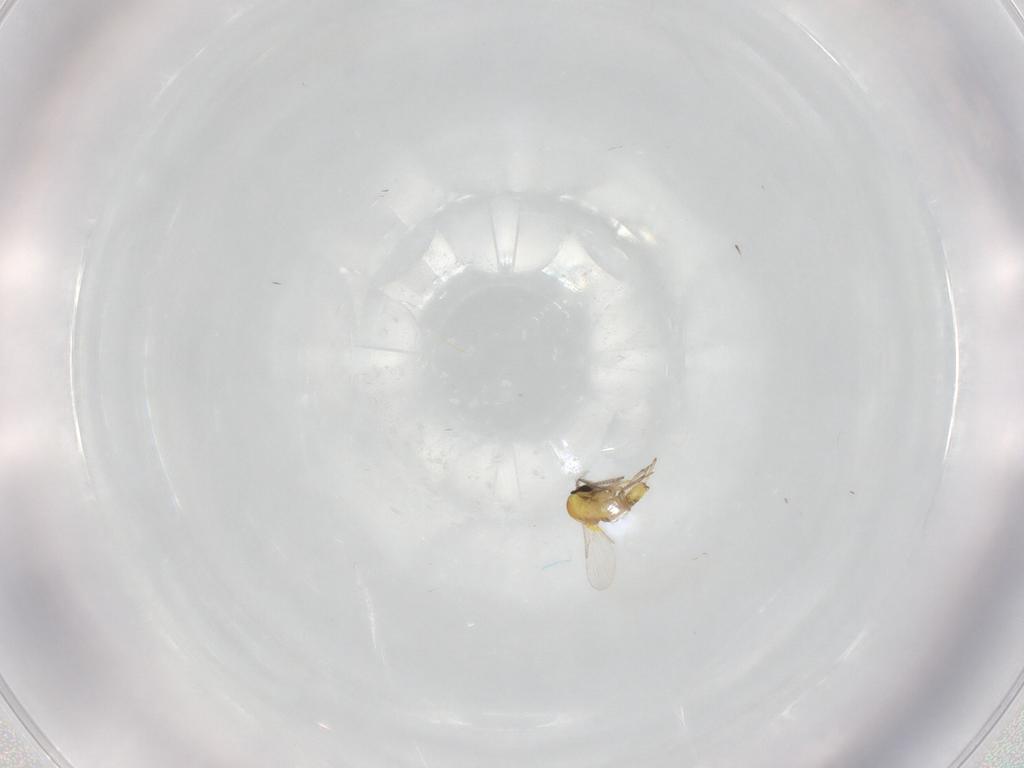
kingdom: Animalia
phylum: Arthropoda
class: Insecta
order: Diptera
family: Ceratopogonidae
